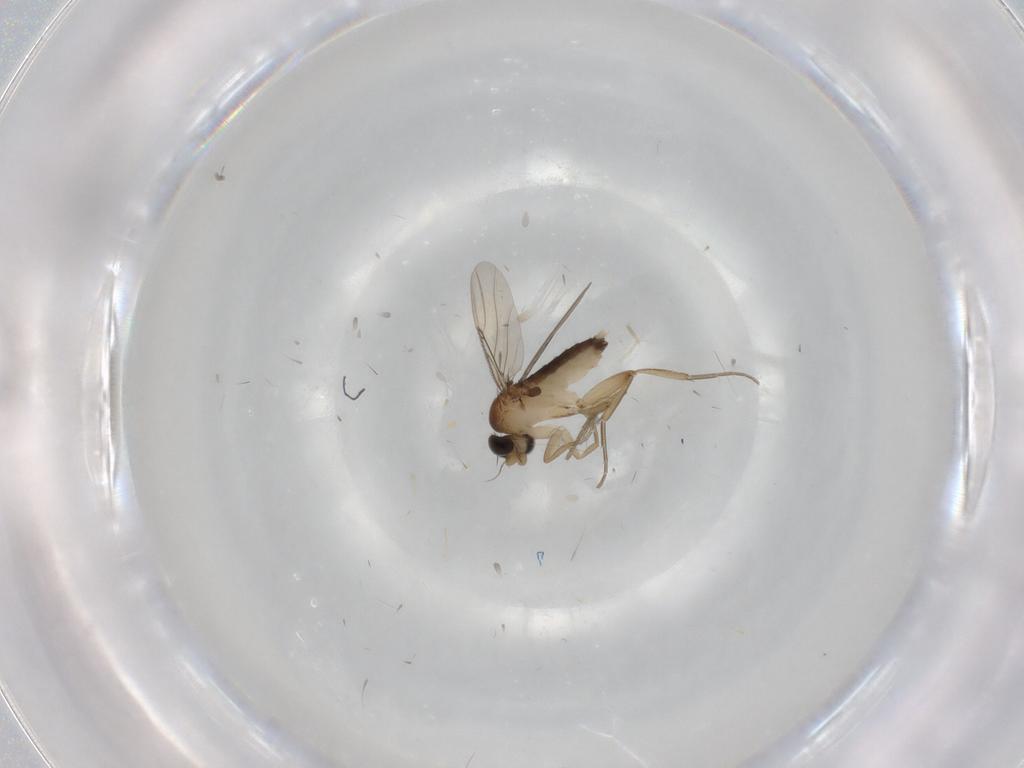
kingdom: Animalia
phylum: Arthropoda
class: Insecta
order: Diptera
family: Phoridae
